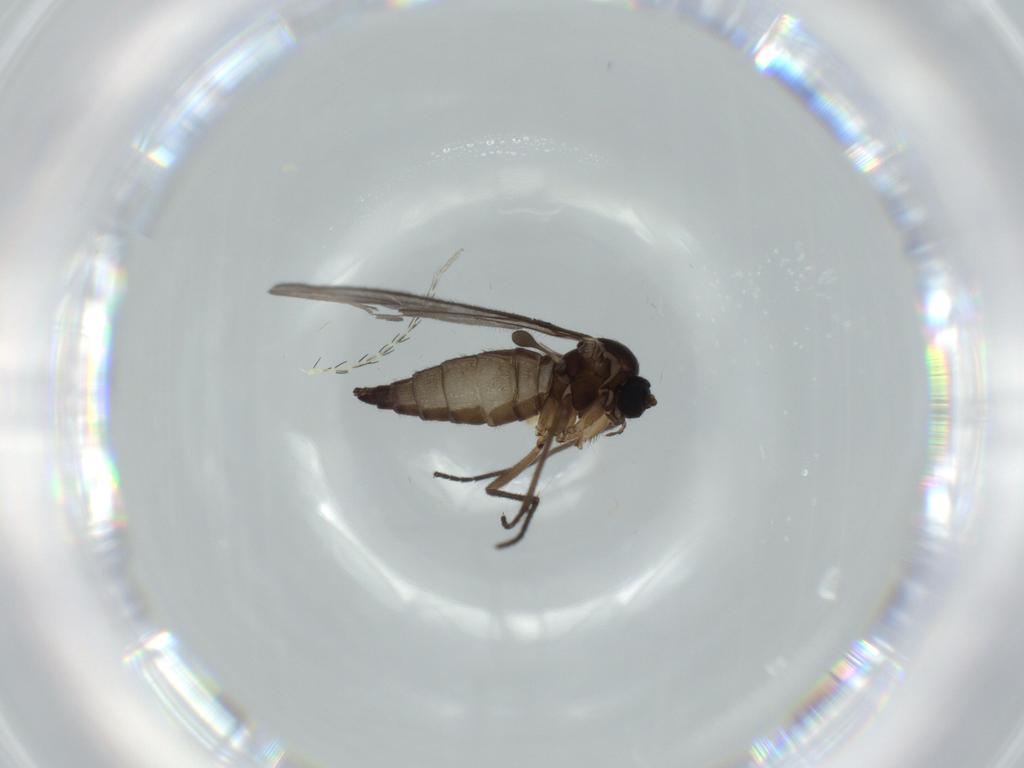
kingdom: Animalia
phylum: Arthropoda
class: Insecta
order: Diptera
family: Sciaridae
